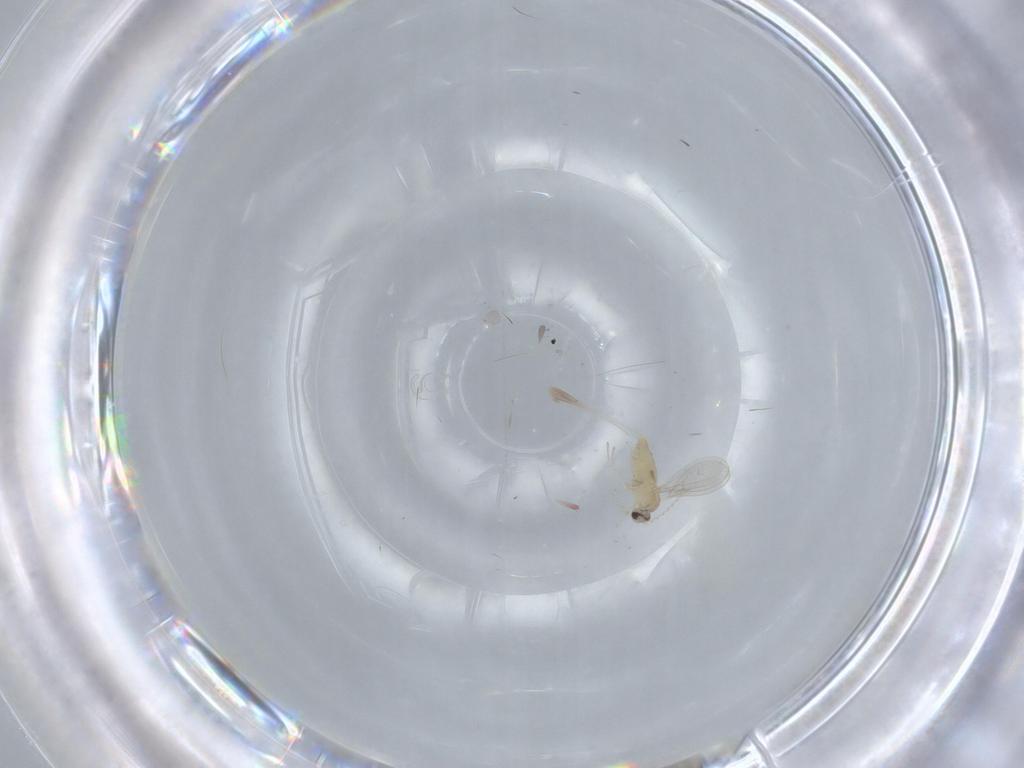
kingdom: Animalia
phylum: Arthropoda
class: Insecta
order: Diptera
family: Cecidomyiidae
